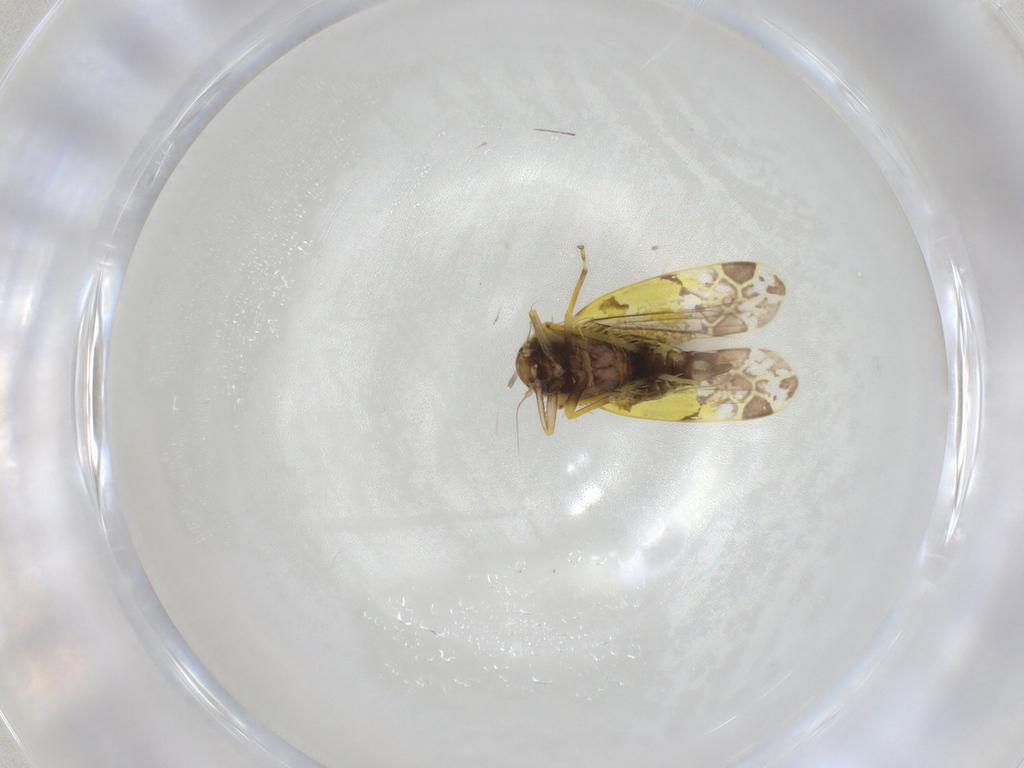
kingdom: Animalia
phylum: Arthropoda
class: Insecta
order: Hemiptera
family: Cicadellidae
